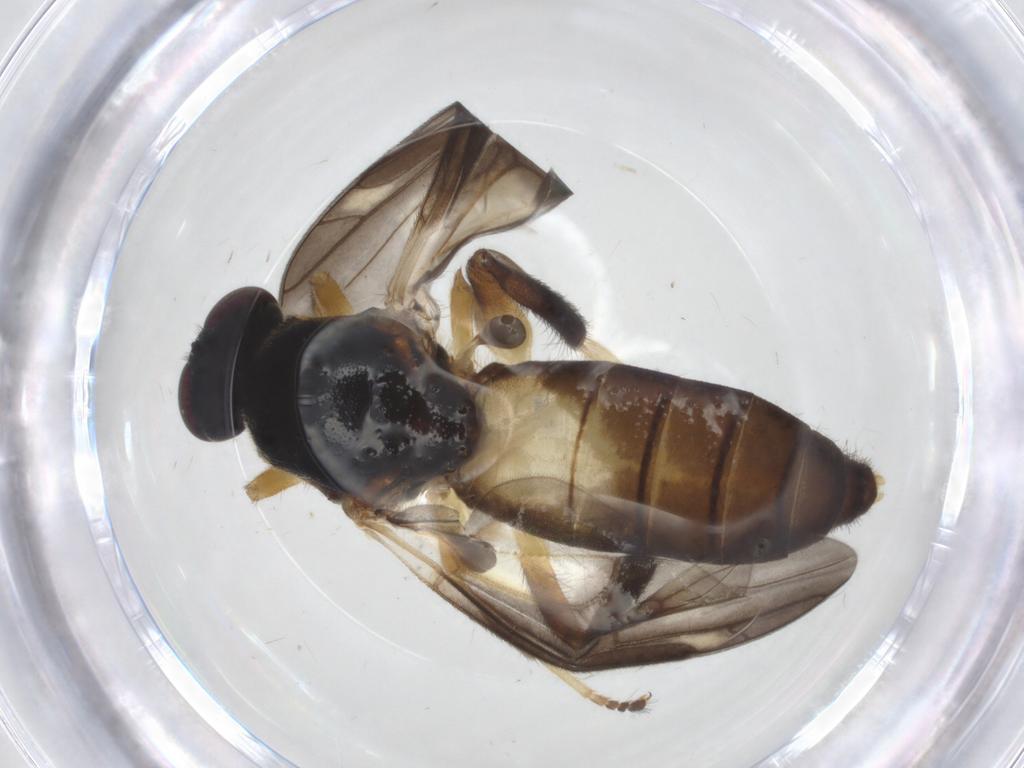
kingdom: Animalia
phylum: Arthropoda
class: Insecta
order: Diptera
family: Stratiomyidae
